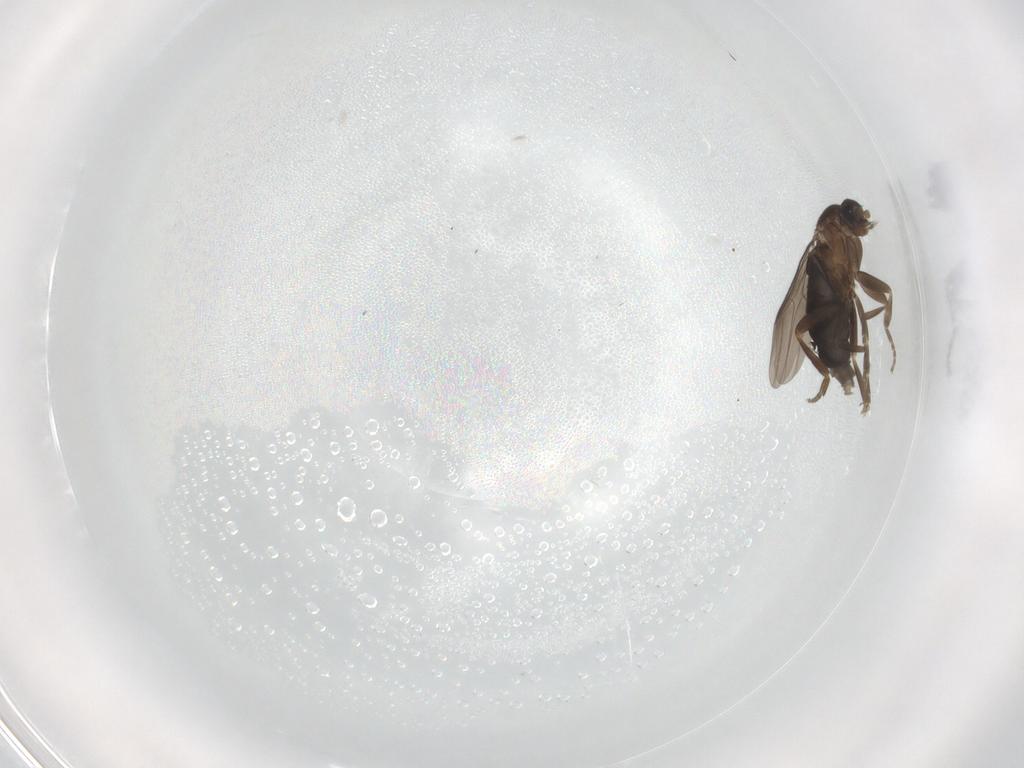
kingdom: Animalia
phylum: Arthropoda
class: Insecta
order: Diptera
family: Phoridae
